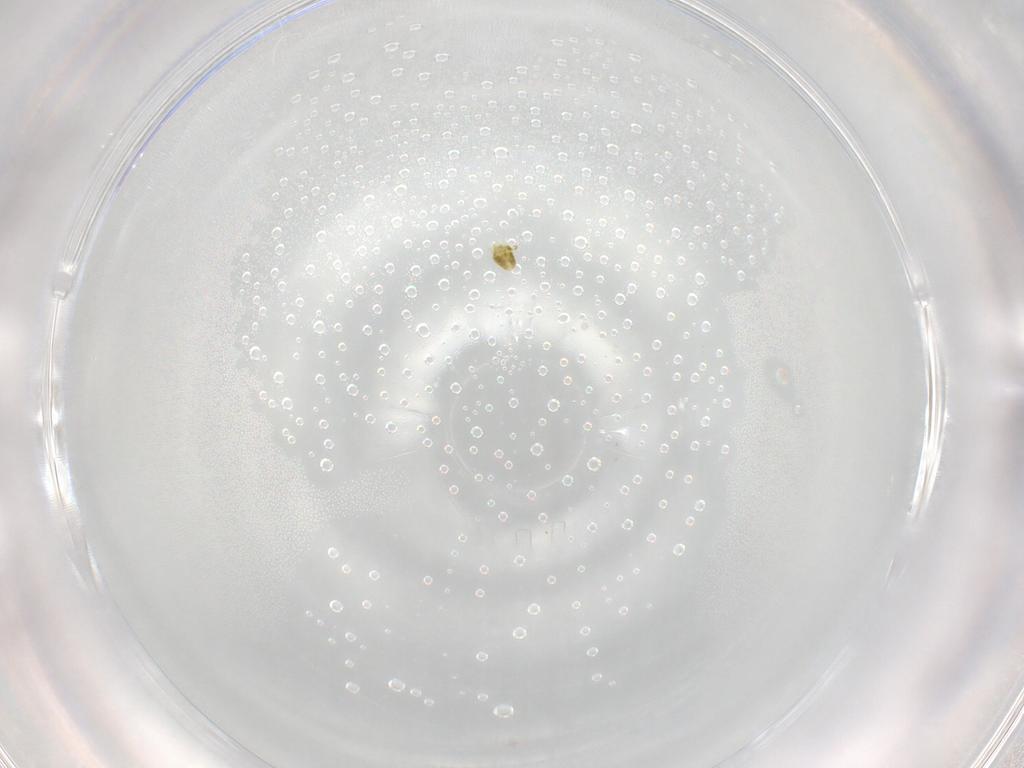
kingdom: Animalia
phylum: Arthropoda
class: Arachnida
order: Trombidiformes
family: Tydeidae
